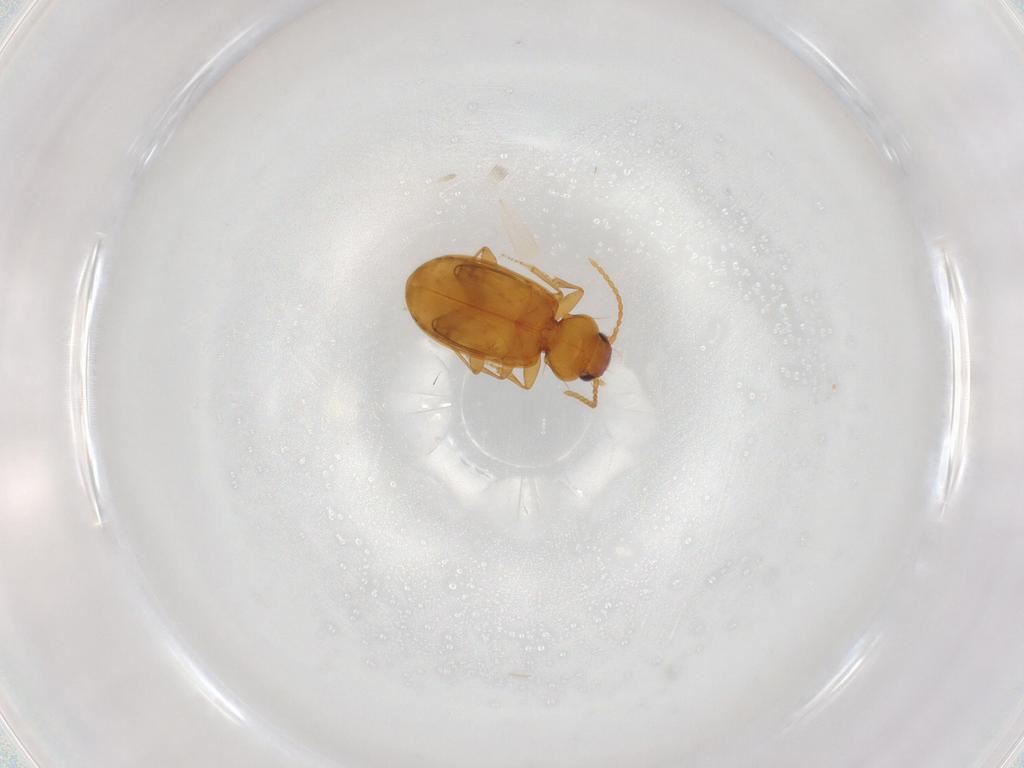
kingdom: Animalia
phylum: Arthropoda
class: Insecta
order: Coleoptera
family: Carabidae
